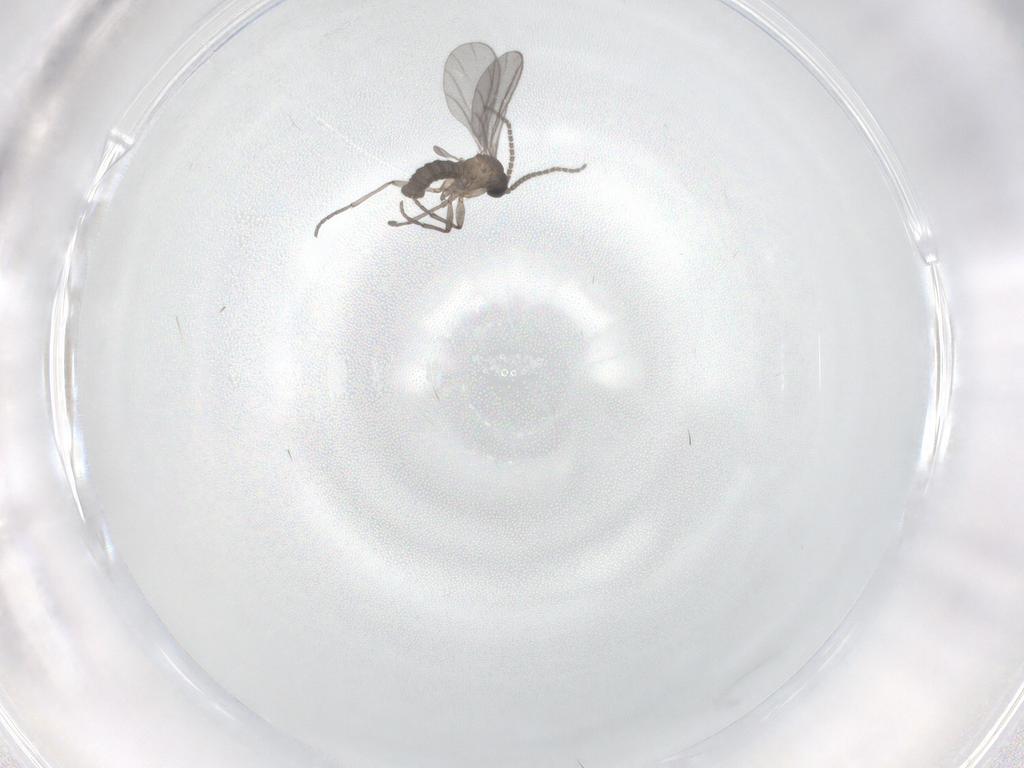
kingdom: Animalia
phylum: Arthropoda
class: Insecta
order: Diptera
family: Sciaridae
